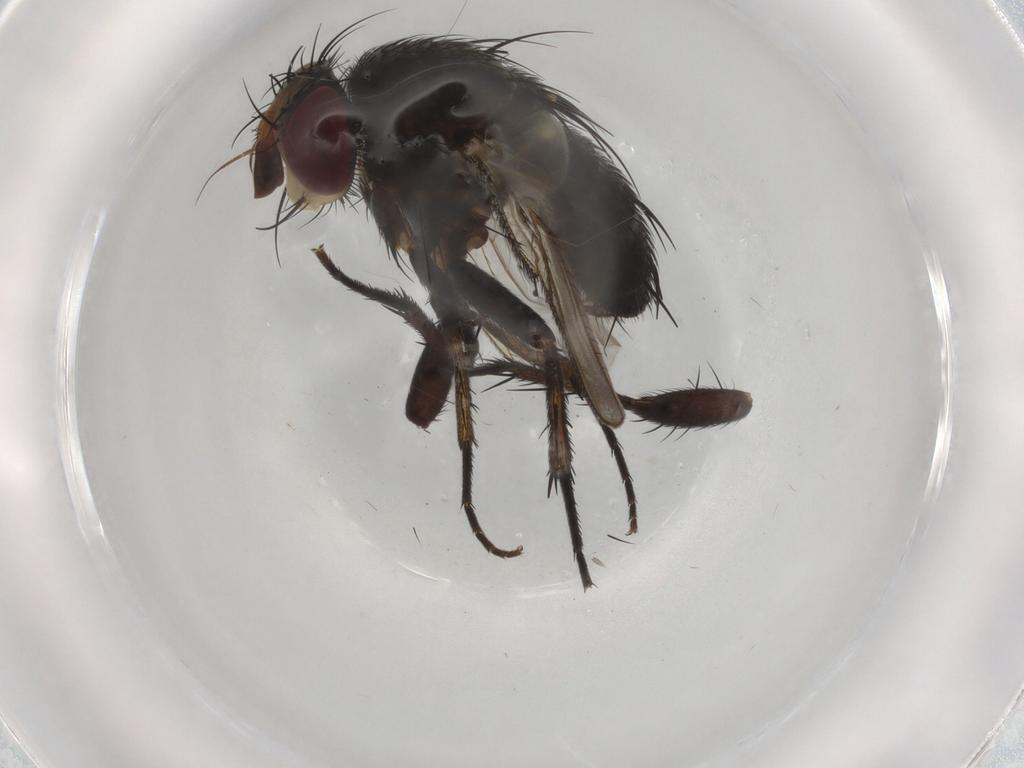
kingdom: Animalia
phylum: Arthropoda
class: Insecta
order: Diptera
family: Tachinidae
